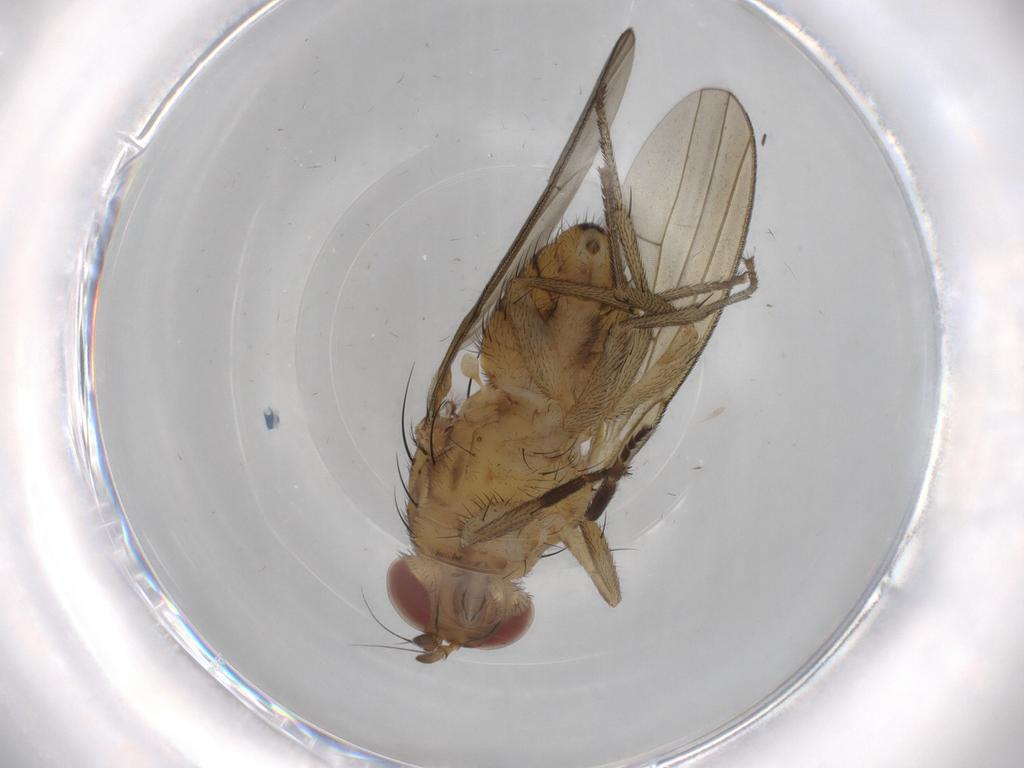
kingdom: Animalia
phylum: Arthropoda
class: Insecta
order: Diptera
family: Ditomyiidae
